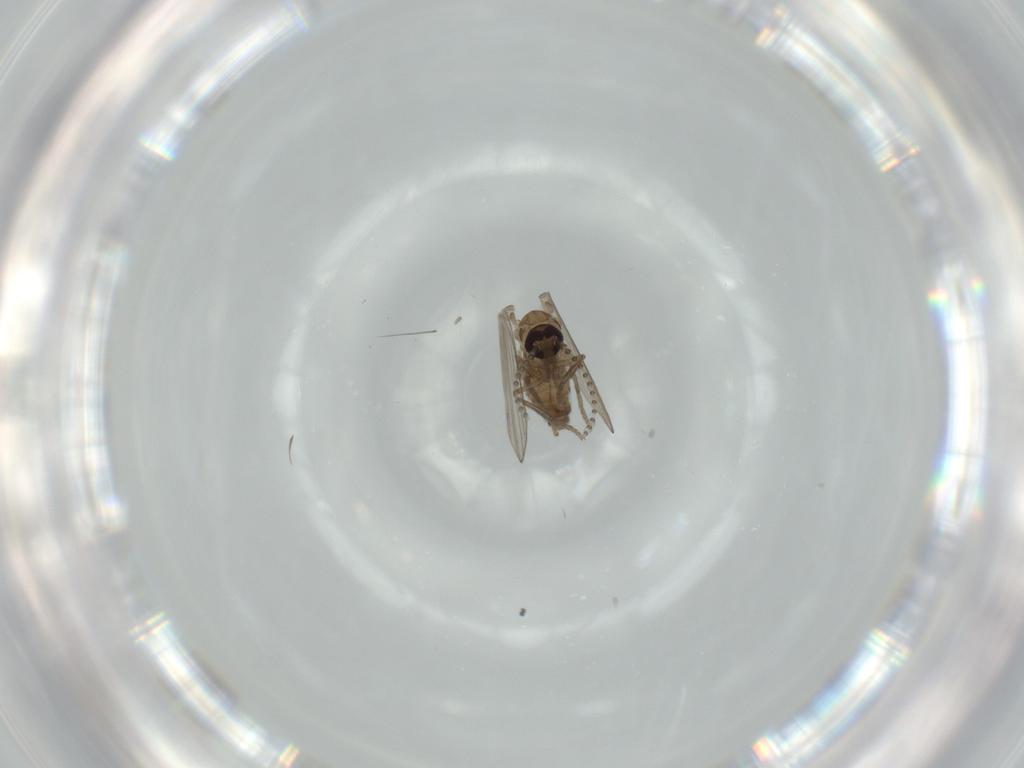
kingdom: Animalia
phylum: Arthropoda
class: Insecta
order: Diptera
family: Psychodidae
